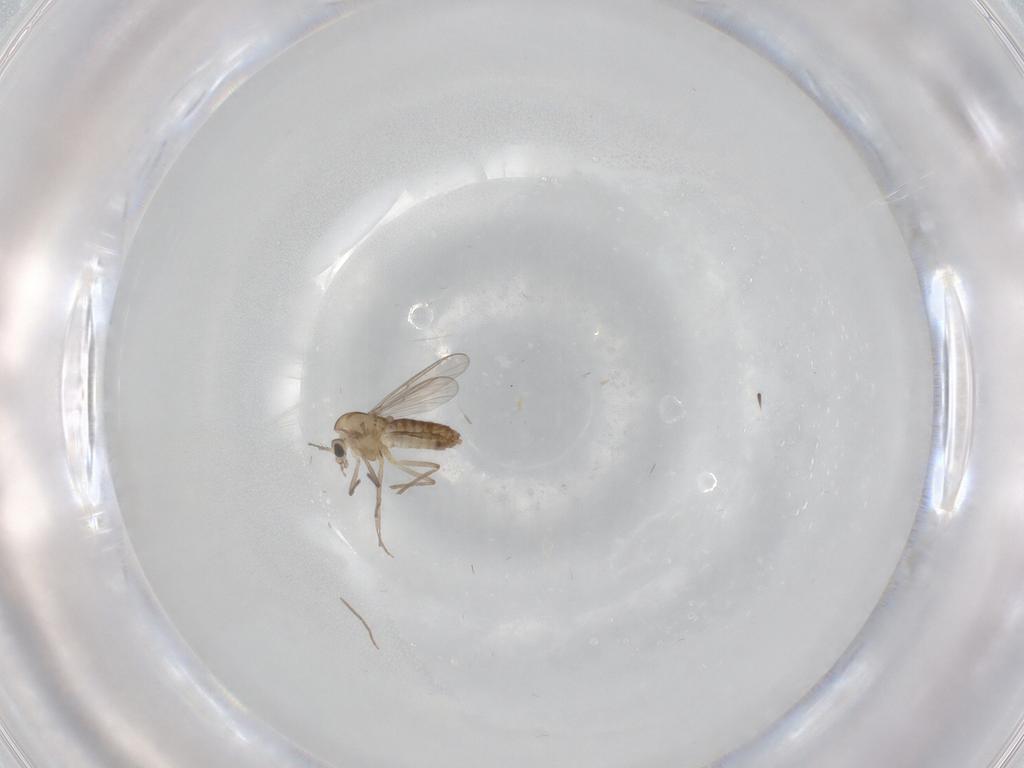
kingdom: Animalia
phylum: Arthropoda
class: Insecta
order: Diptera
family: Chironomidae
